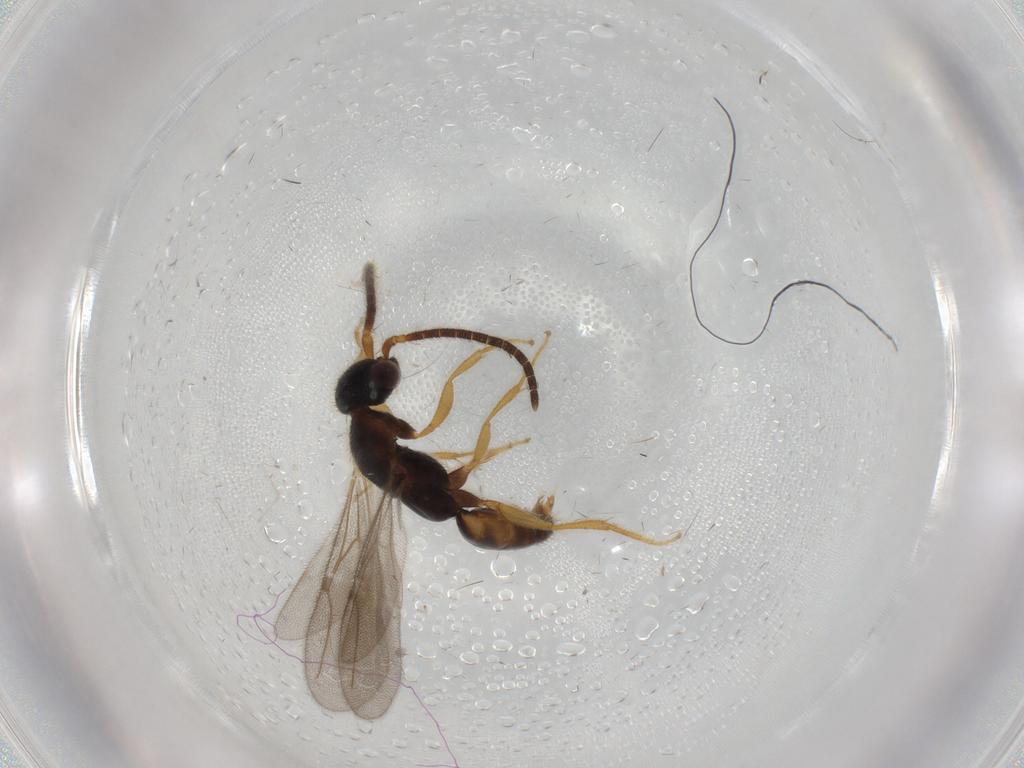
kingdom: Animalia
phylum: Arthropoda
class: Insecta
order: Hymenoptera
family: Bethylidae
